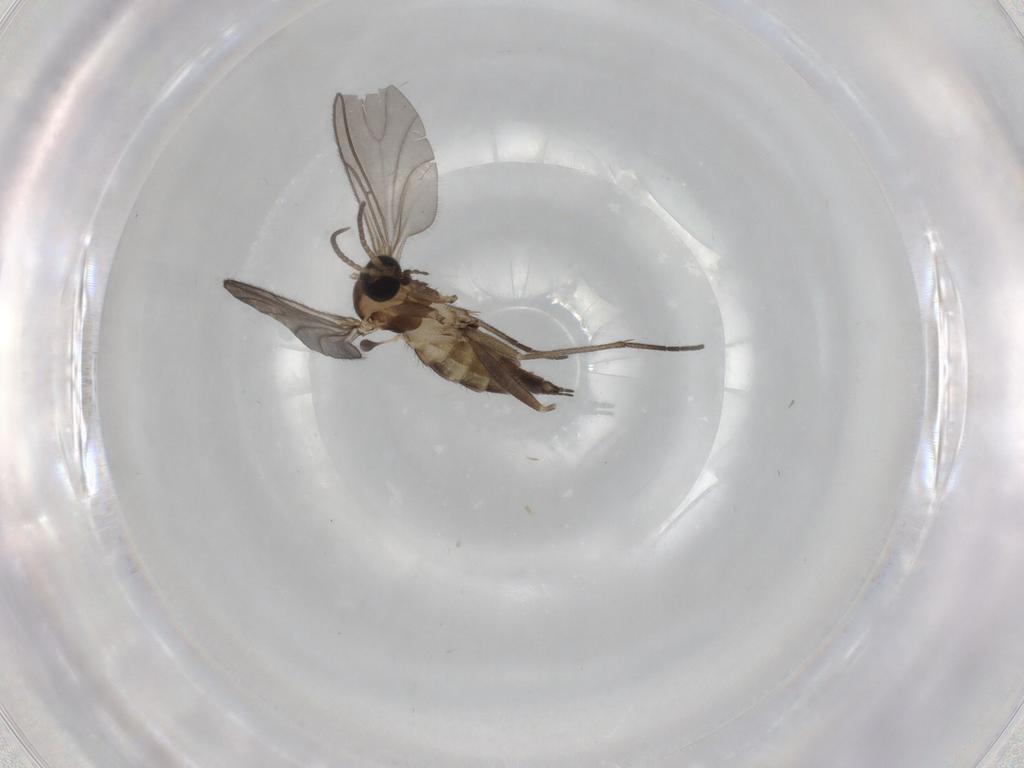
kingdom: Animalia
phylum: Arthropoda
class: Insecta
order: Diptera
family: Sciaridae
